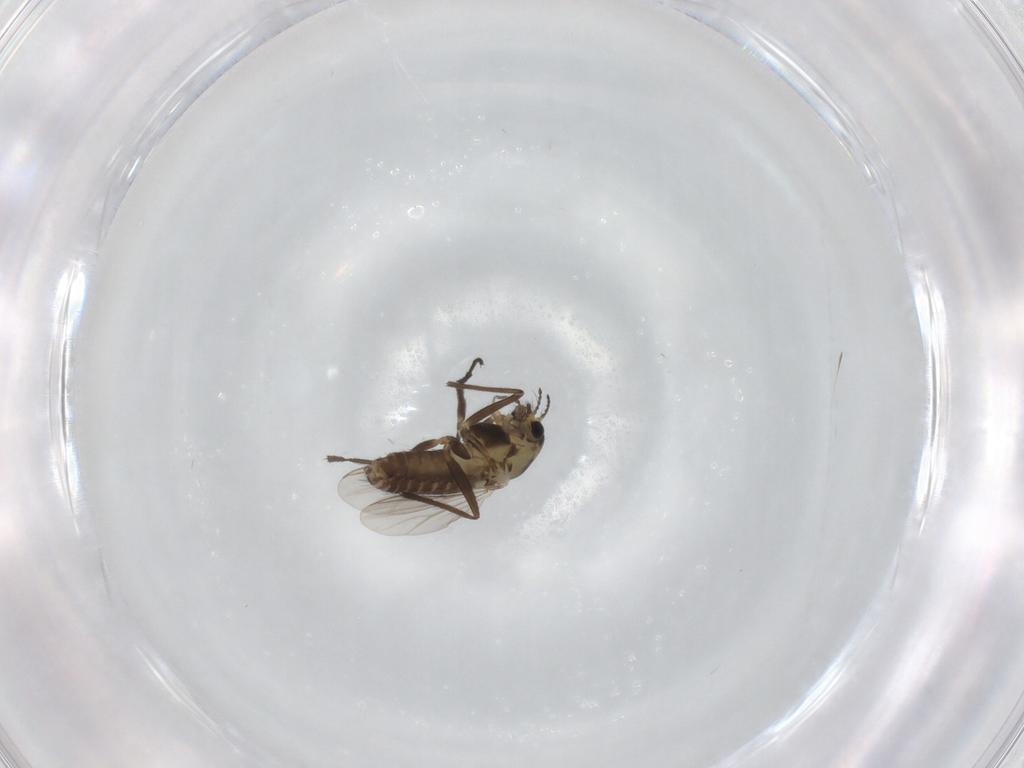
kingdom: Animalia
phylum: Arthropoda
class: Insecta
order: Diptera
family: Chironomidae
